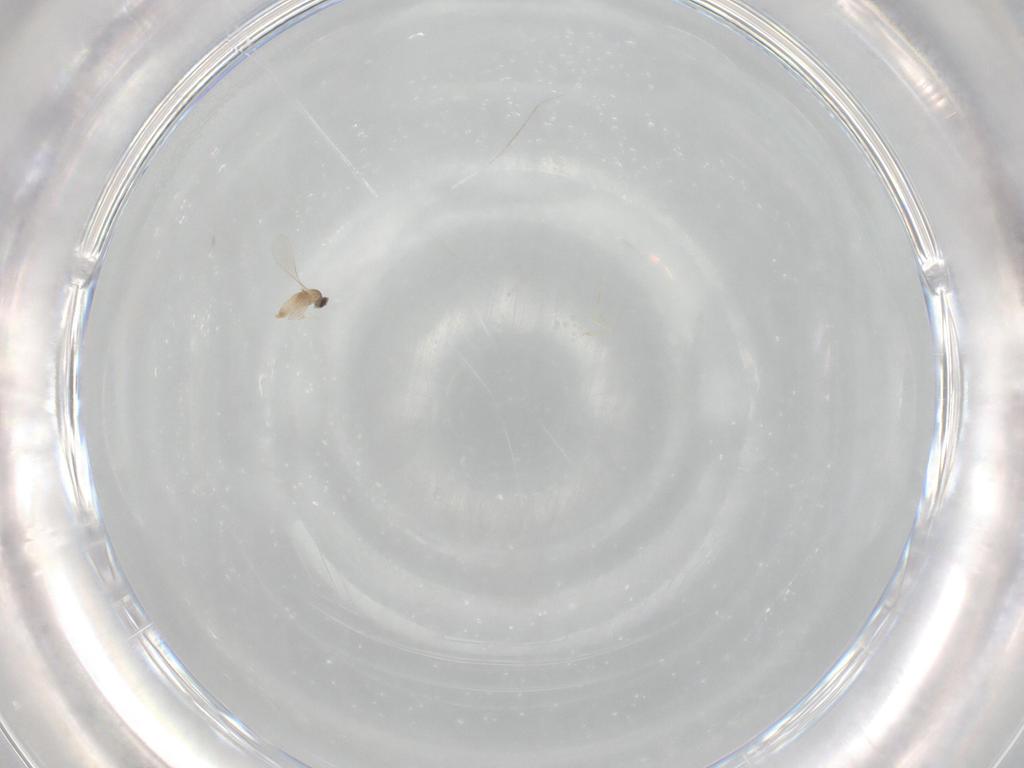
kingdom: Animalia
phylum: Arthropoda
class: Insecta
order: Diptera
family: Cecidomyiidae
